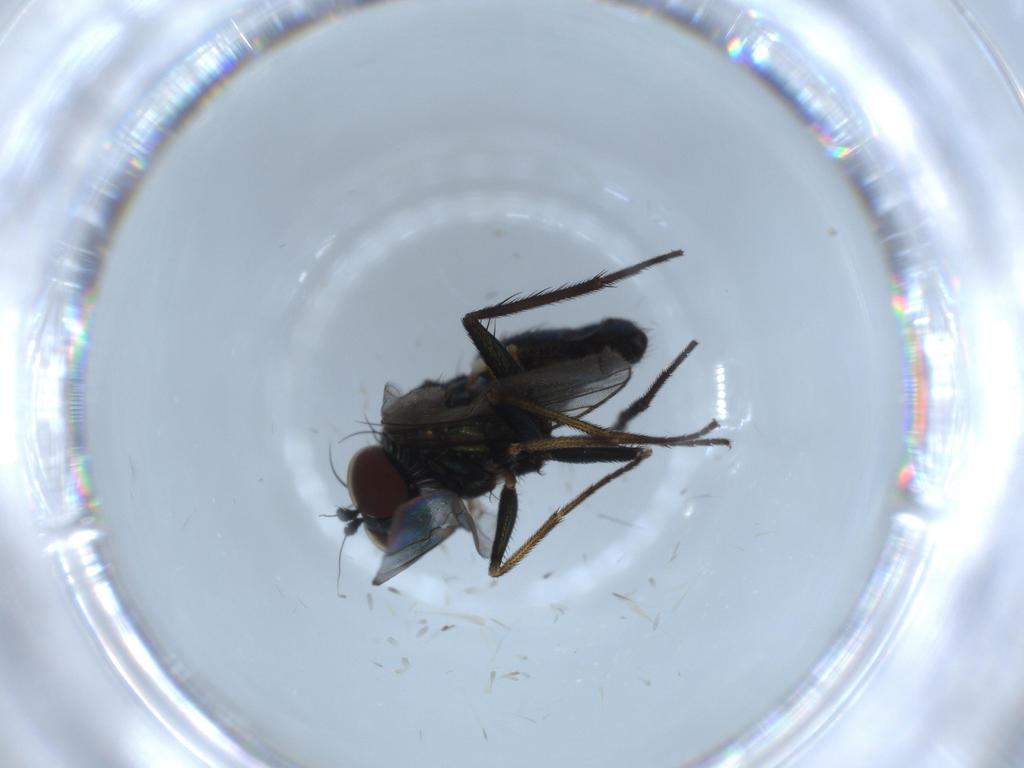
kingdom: Animalia
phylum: Arthropoda
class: Insecta
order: Diptera
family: Dolichopodidae
